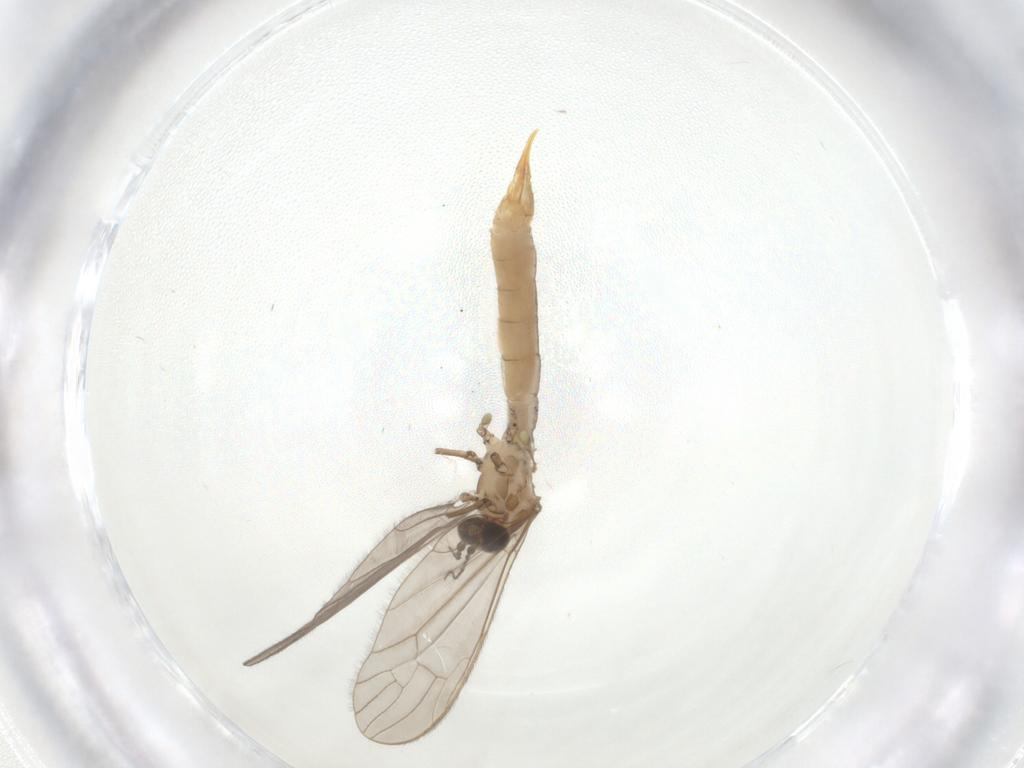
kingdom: Animalia
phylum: Arthropoda
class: Insecta
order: Diptera
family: Limoniidae
